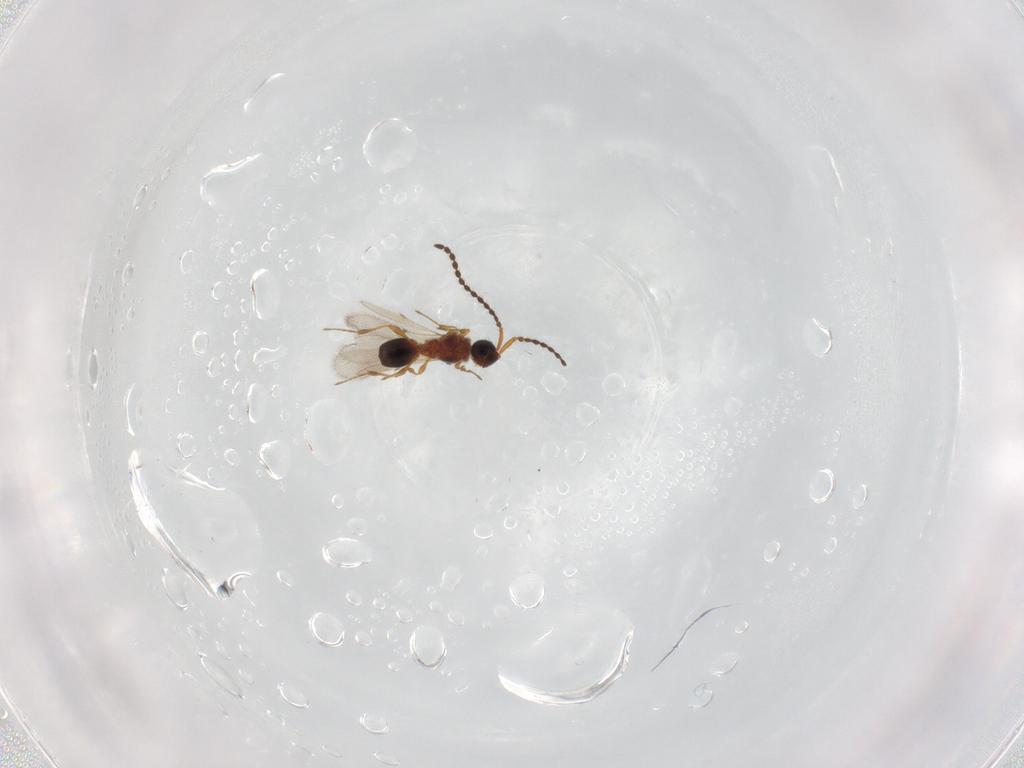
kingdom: Animalia
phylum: Arthropoda
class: Insecta
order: Hymenoptera
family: Diapriidae
